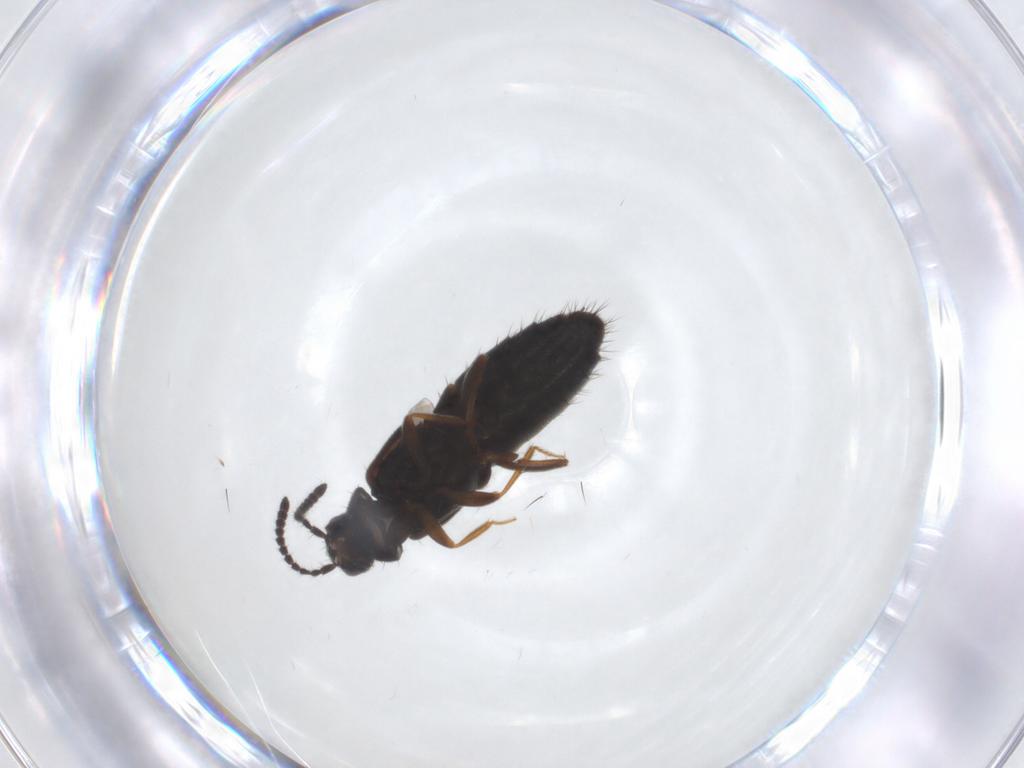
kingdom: Animalia
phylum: Arthropoda
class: Insecta
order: Coleoptera
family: Staphylinidae
